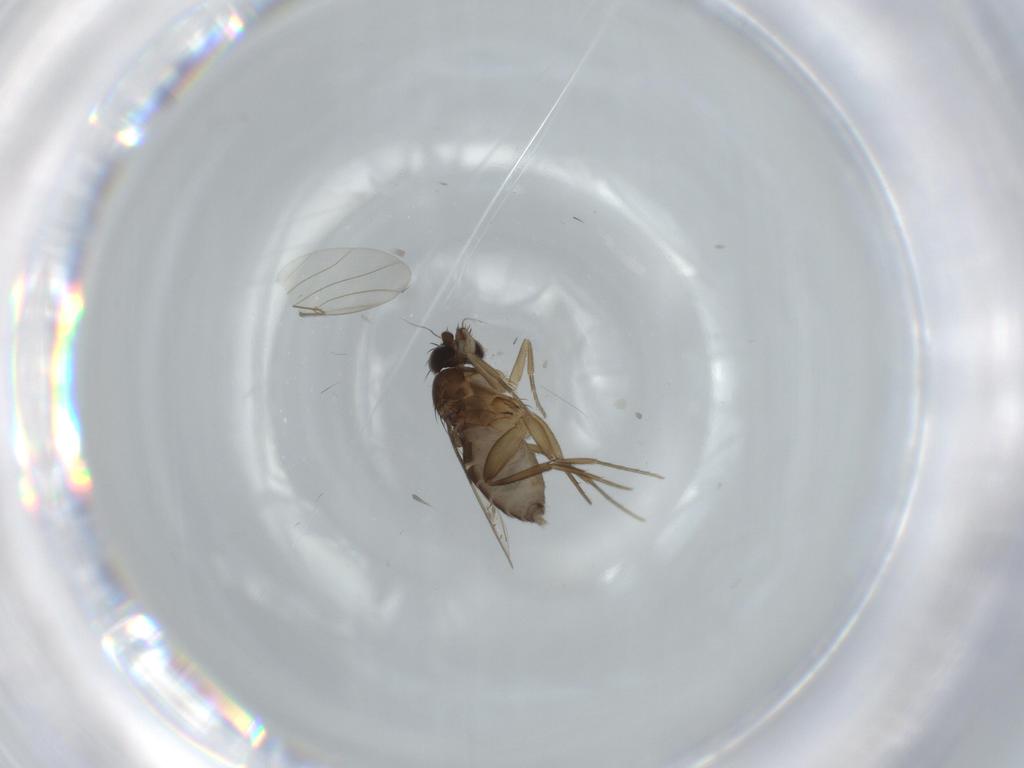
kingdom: Animalia
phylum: Arthropoda
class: Insecta
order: Diptera
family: Phoridae
